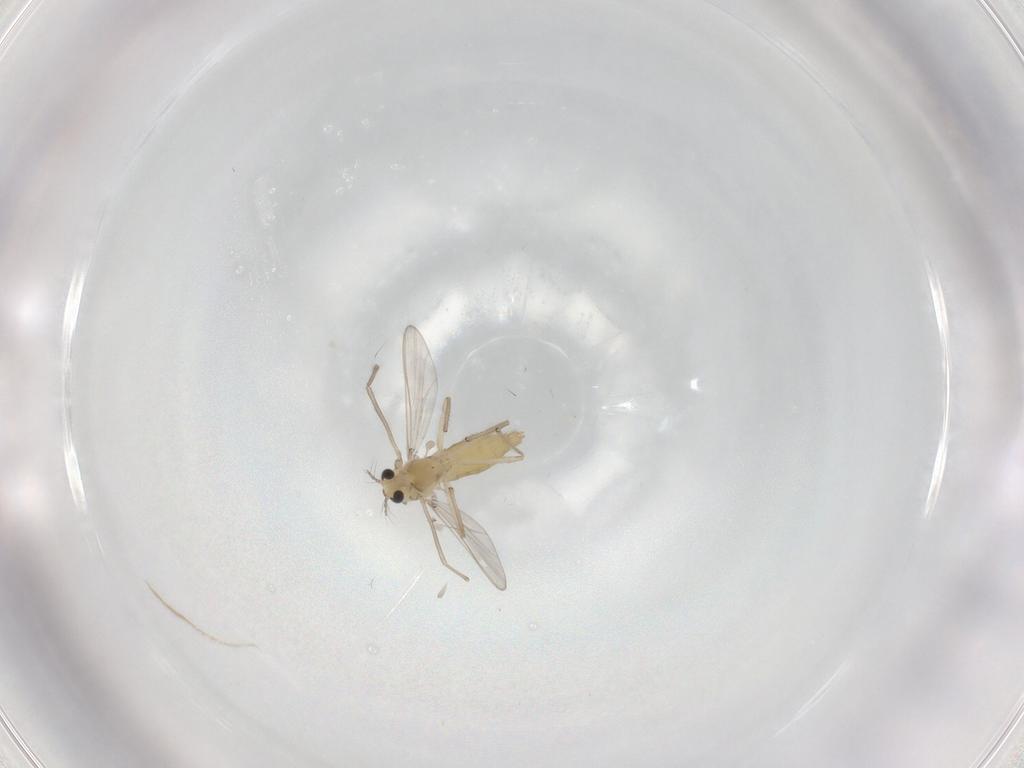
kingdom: Animalia
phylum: Arthropoda
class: Insecta
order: Diptera
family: Chironomidae
